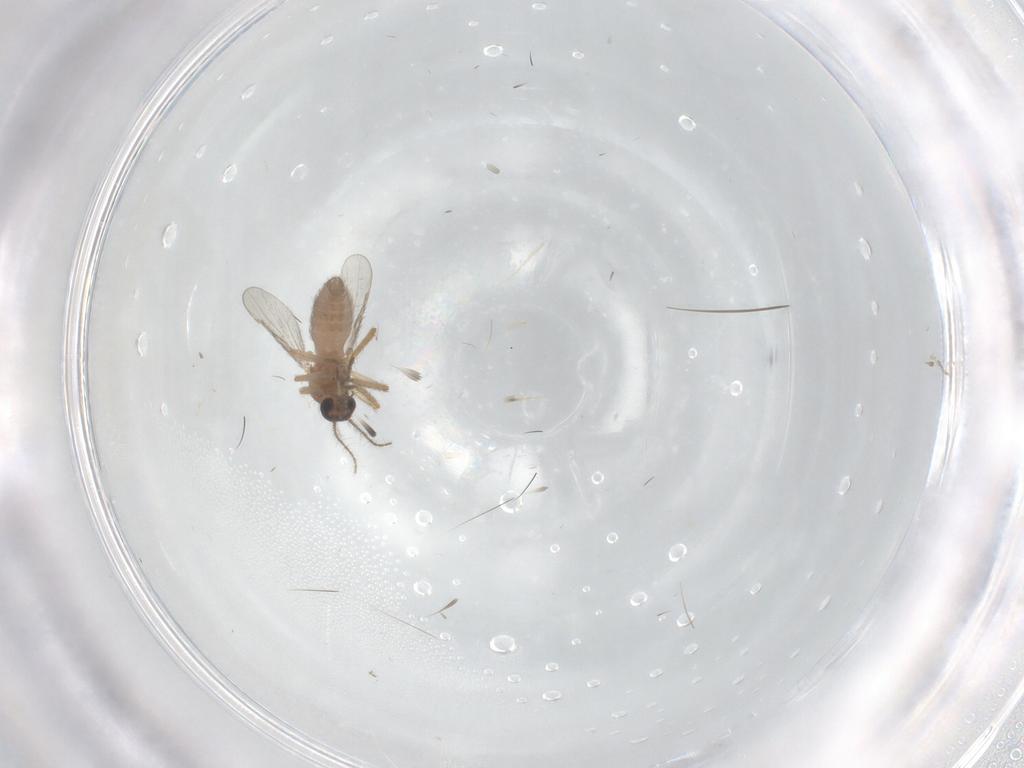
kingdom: Animalia
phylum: Arthropoda
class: Insecta
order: Diptera
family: Ceratopogonidae
